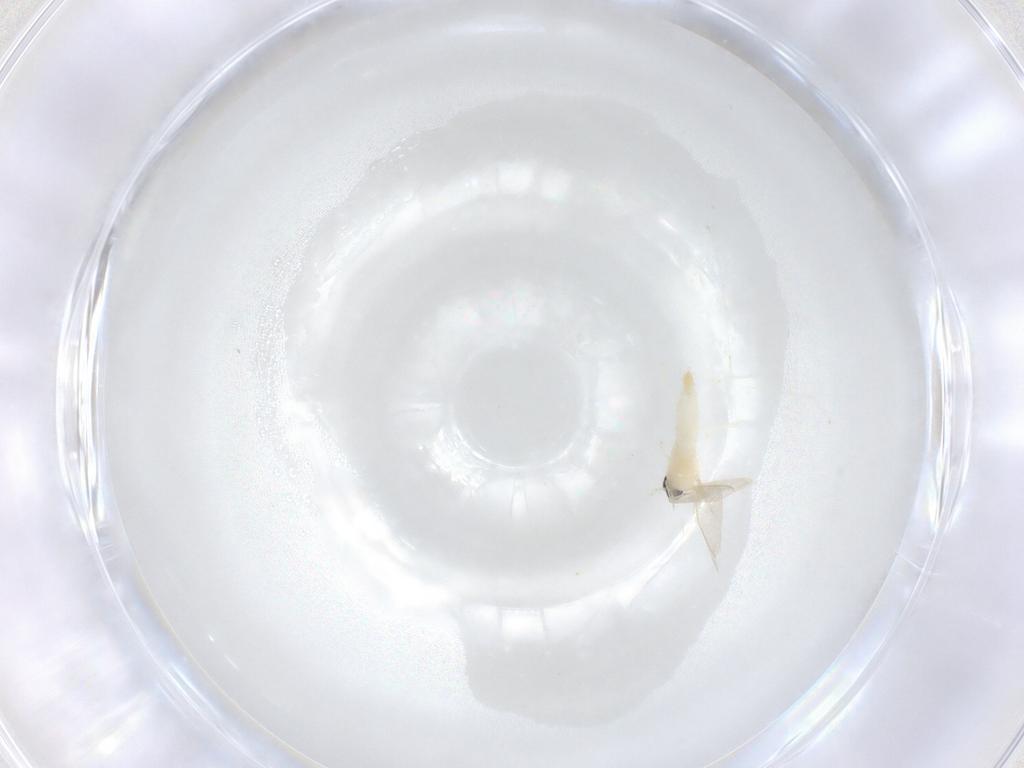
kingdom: Animalia
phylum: Arthropoda
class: Insecta
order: Diptera
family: Cecidomyiidae
